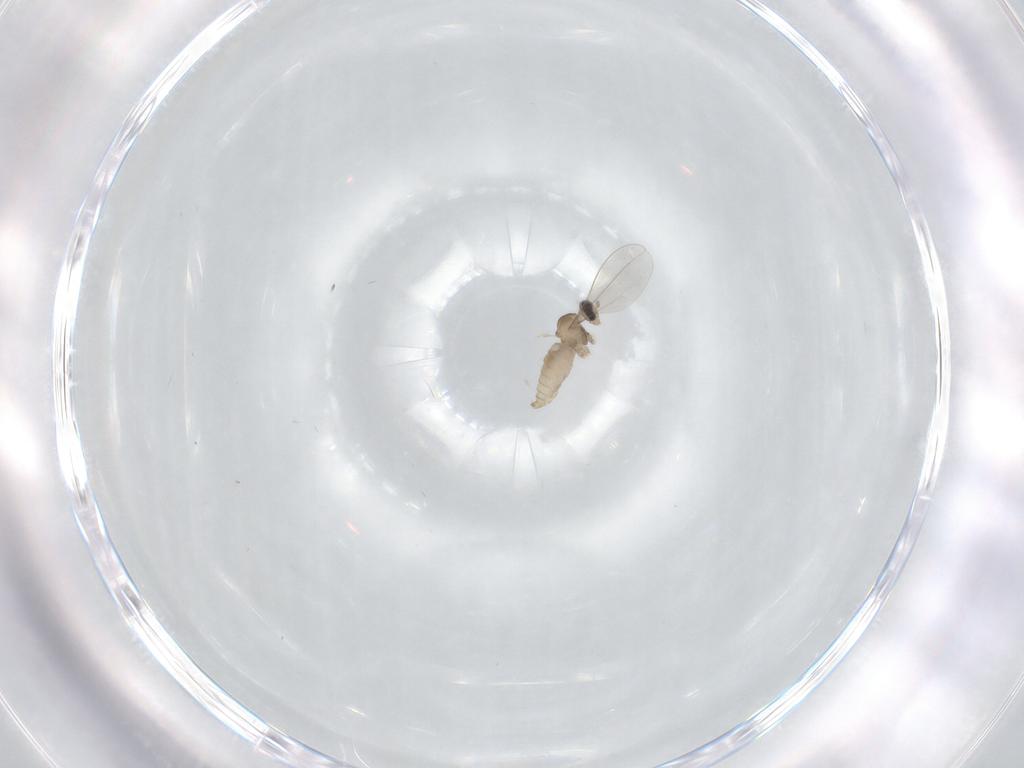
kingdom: Animalia
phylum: Arthropoda
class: Insecta
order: Diptera
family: Cecidomyiidae
